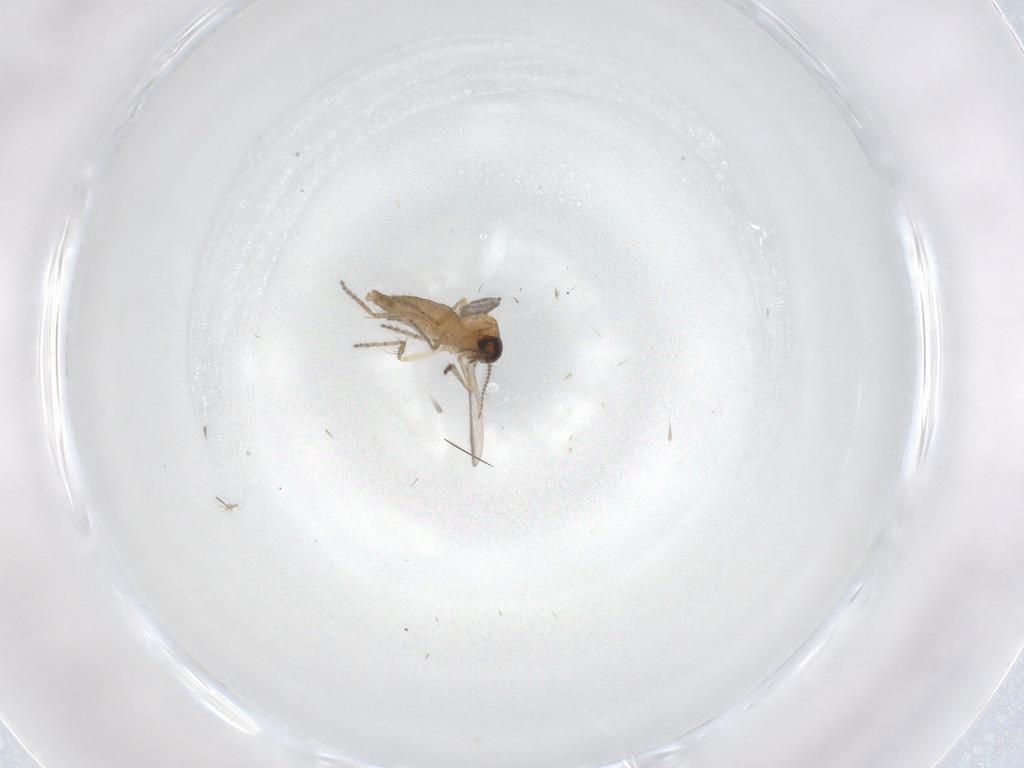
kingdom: Animalia
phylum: Arthropoda
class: Insecta
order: Diptera
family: Ceratopogonidae
